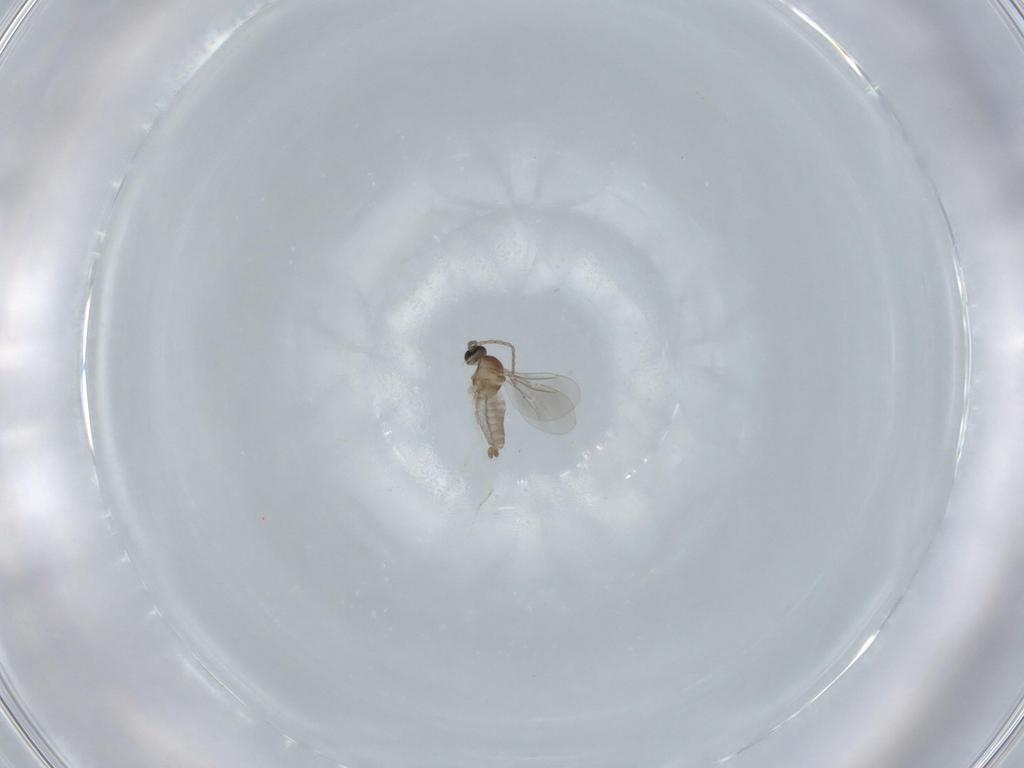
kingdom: Animalia
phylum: Arthropoda
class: Insecta
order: Diptera
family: Cecidomyiidae
